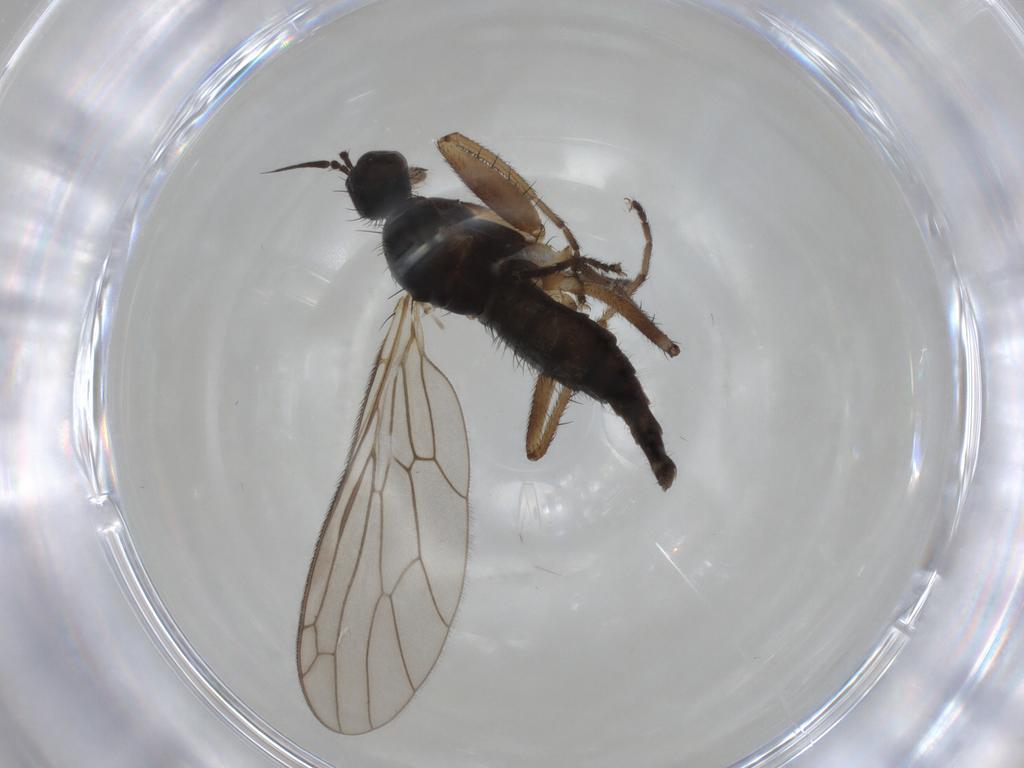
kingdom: Animalia
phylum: Arthropoda
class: Insecta
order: Diptera
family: Chironomidae
